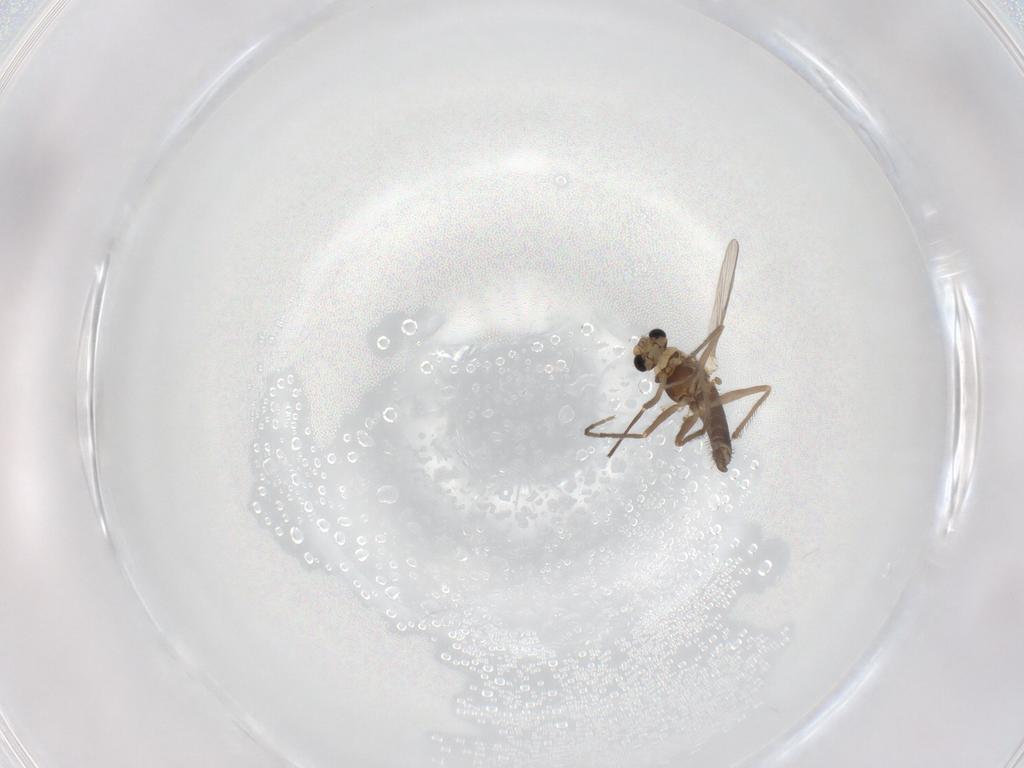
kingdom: Animalia
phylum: Arthropoda
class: Insecta
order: Diptera
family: Chironomidae
